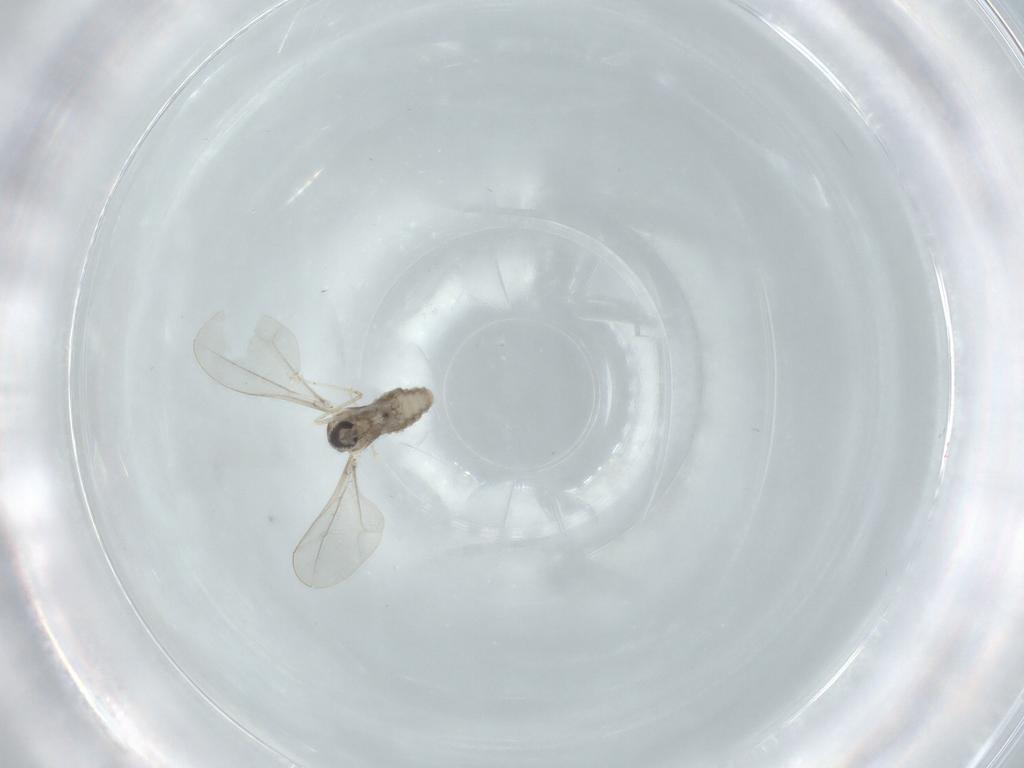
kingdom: Animalia
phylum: Arthropoda
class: Insecta
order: Diptera
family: Cecidomyiidae
